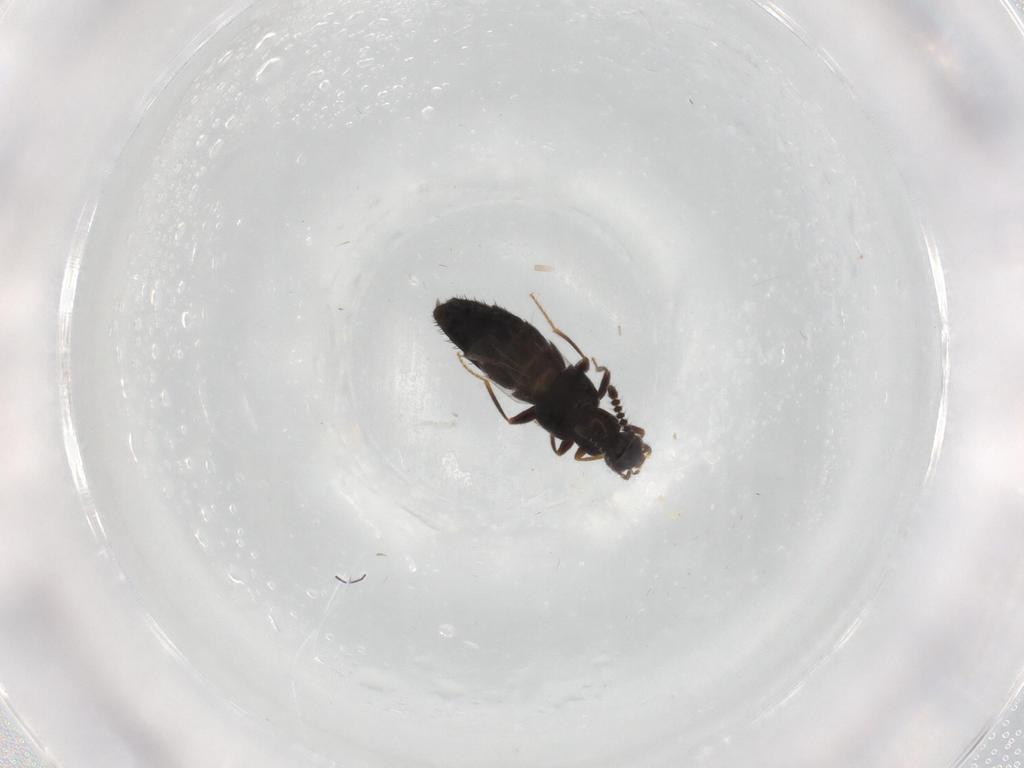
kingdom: Animalia
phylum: Arthropoda
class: Insecta
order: Coleoptera
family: Staphylinidae
